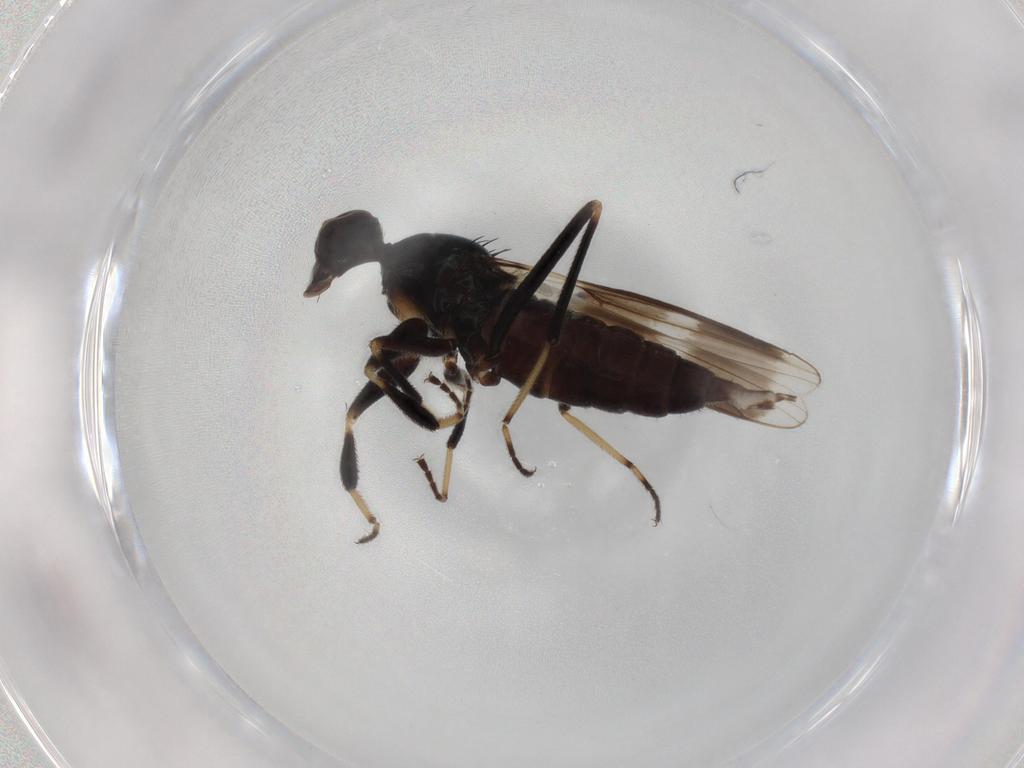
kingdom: Animalia
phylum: Arthropoda
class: Insecta
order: Diptera
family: Psilidae
